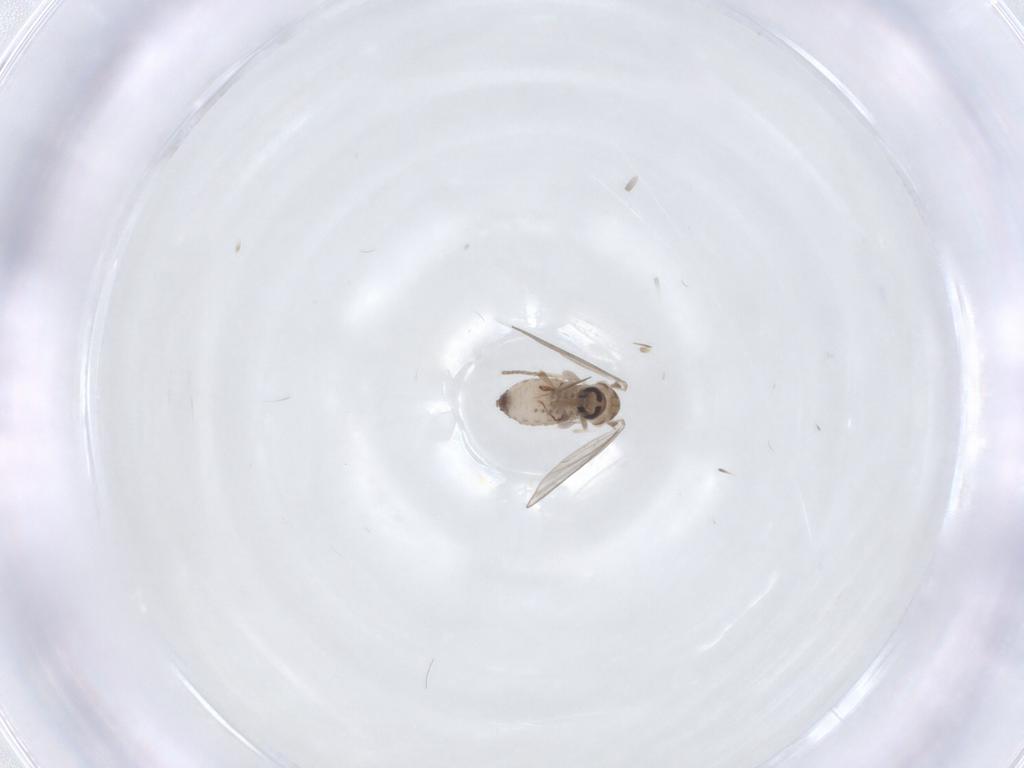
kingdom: Animalia
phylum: Arthropoda
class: Insecta
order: Diptera
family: Psychodidae
